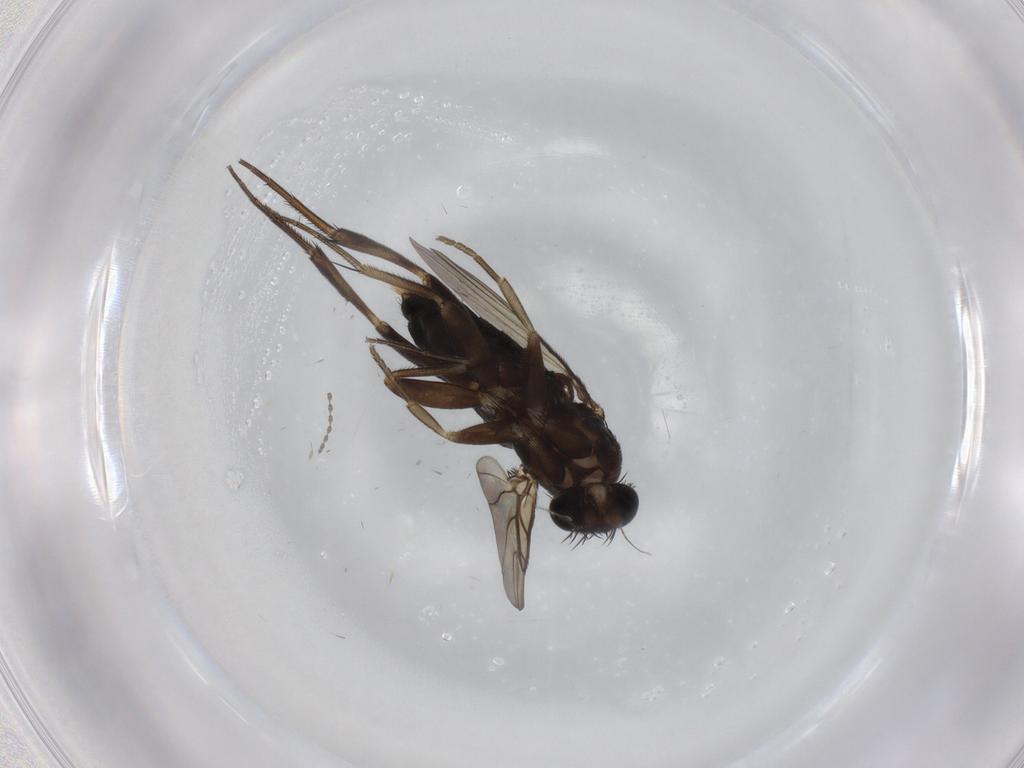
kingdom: Animalia
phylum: Arthropoda
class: Insecta
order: Diptera
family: Phoridae
